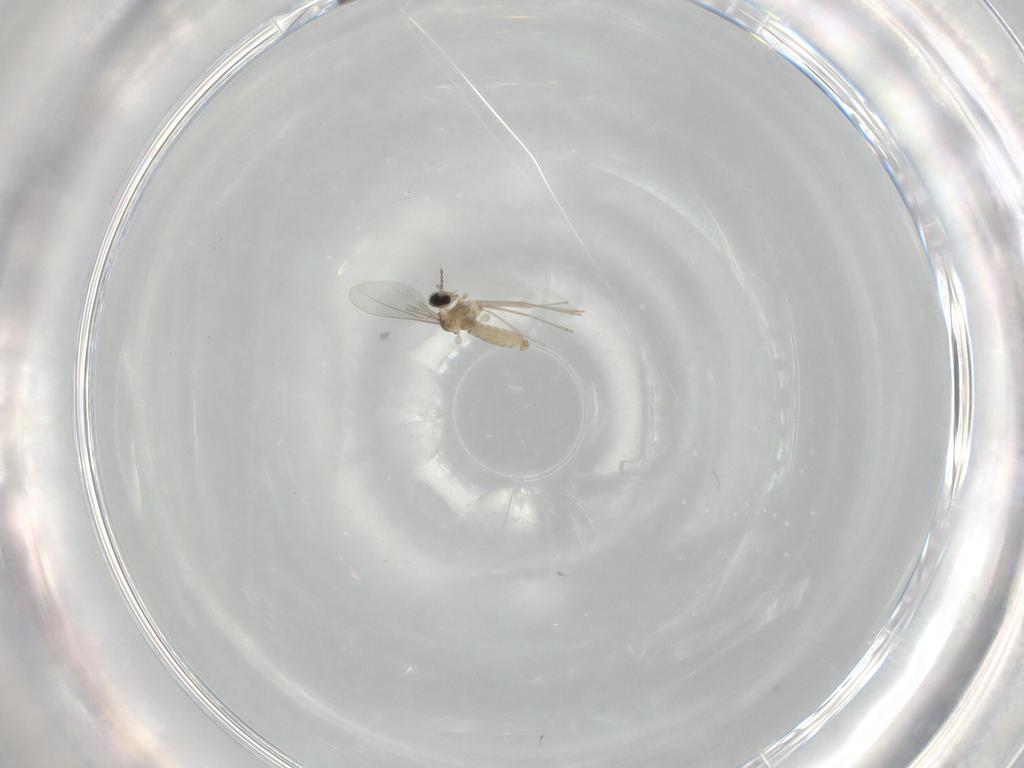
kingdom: Animalia
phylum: Arthropoda
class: Insecta
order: Diptera
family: Cecidomyiidae
